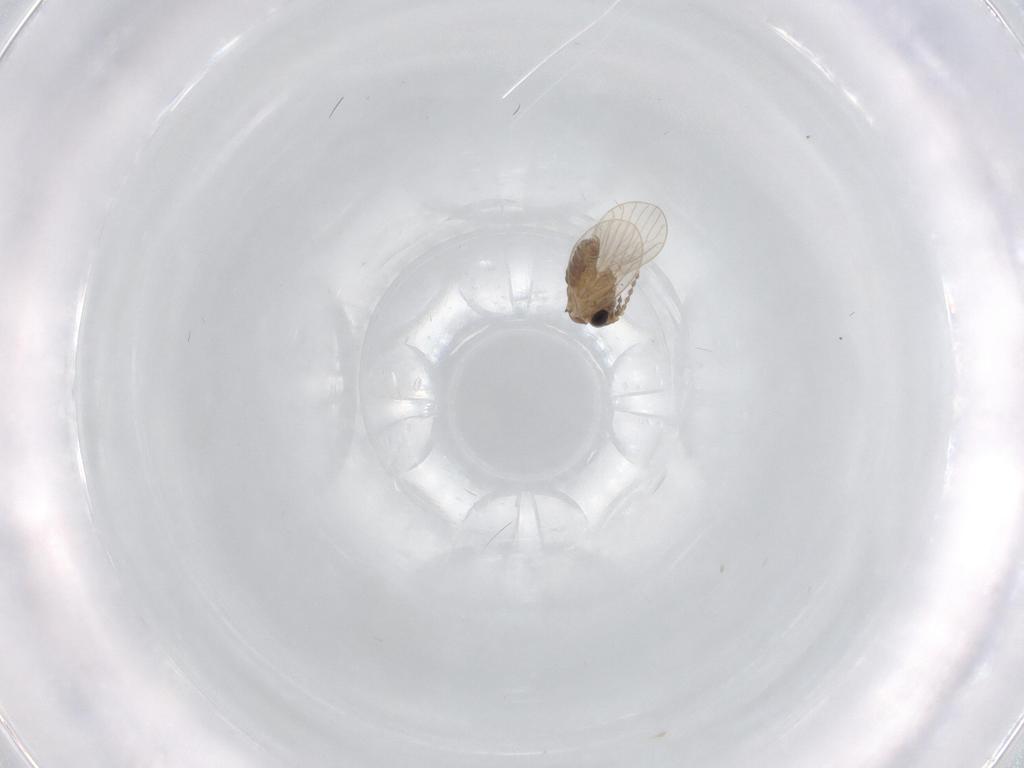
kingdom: Animalia
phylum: Arthropoda
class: Insecta
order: Diptera
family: Psychodidae
